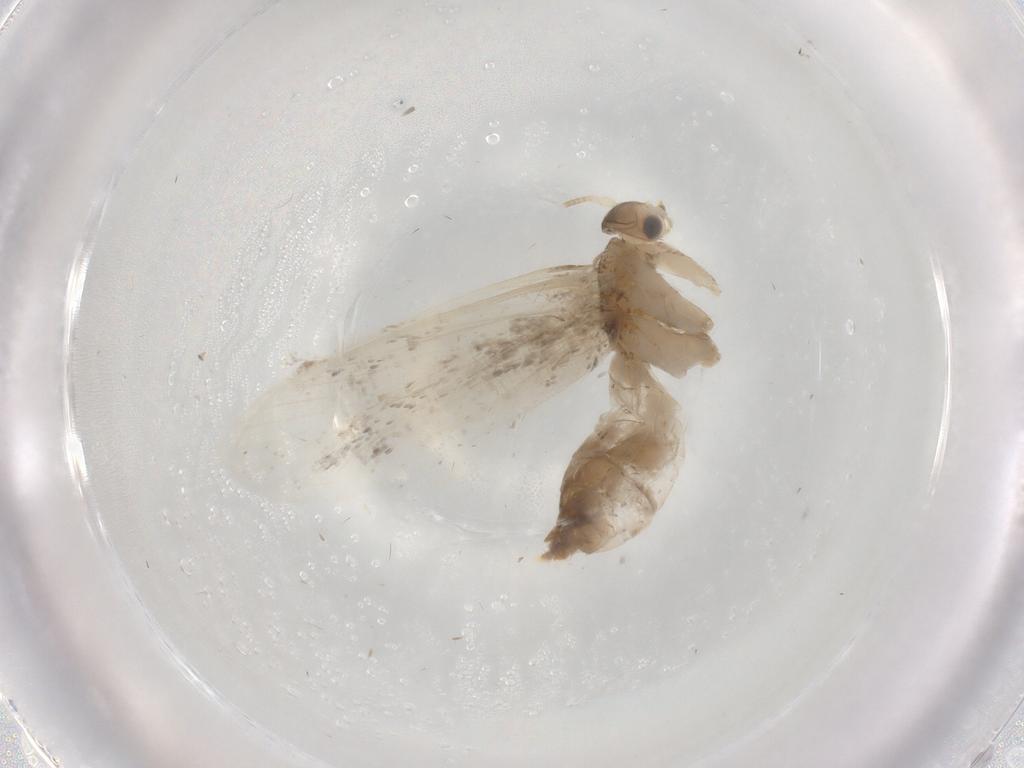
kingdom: Animalia
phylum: Arthropoda
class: Insecta
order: Lepidoptera
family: Dryadaulidae
